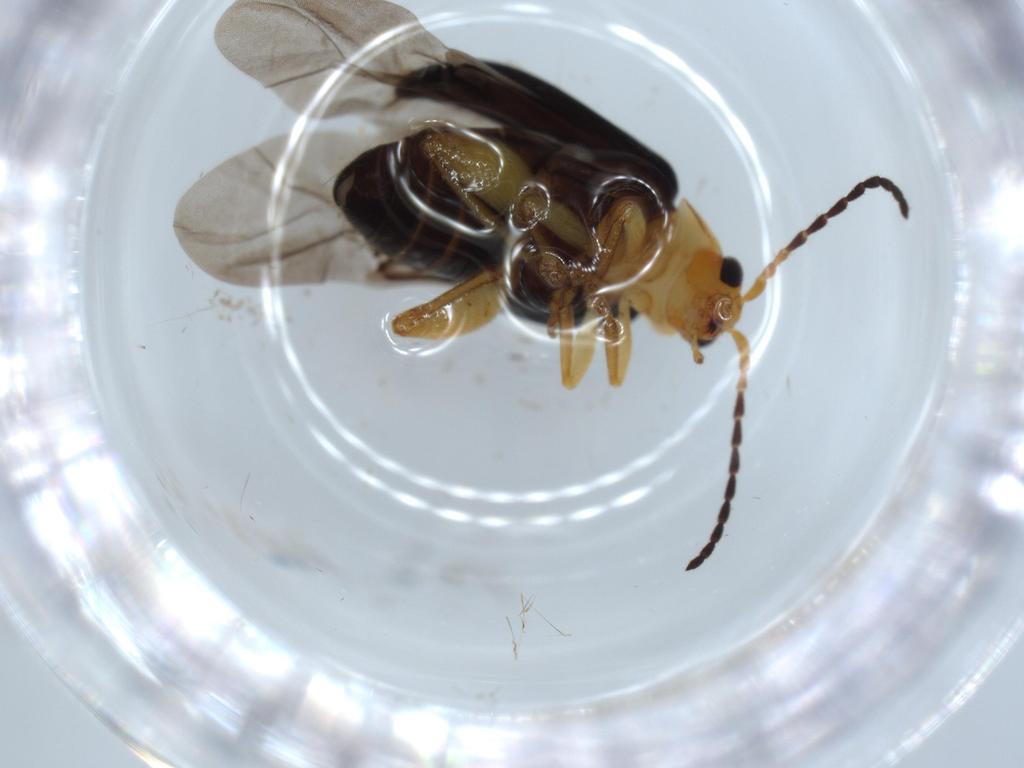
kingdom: Animalia
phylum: Arthropoda
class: Insecta
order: Coleoptera
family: Chrysomelidae
